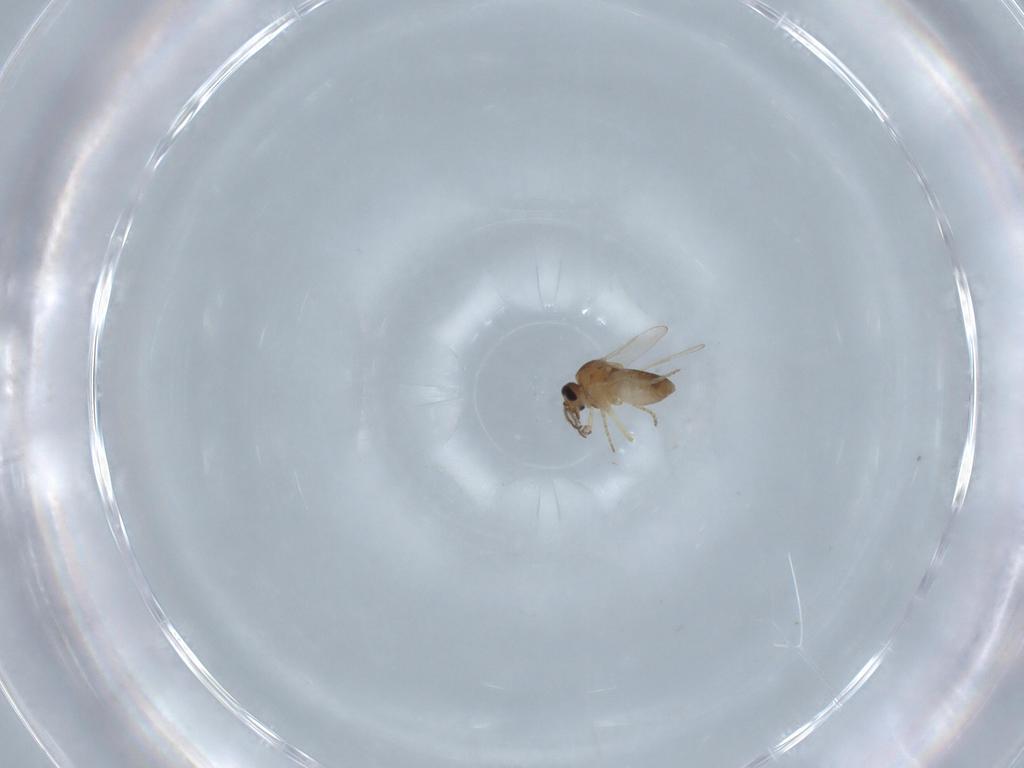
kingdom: Animalia
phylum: Arthropoda
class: Insecta
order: Diptera
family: Ceratopogonidae
